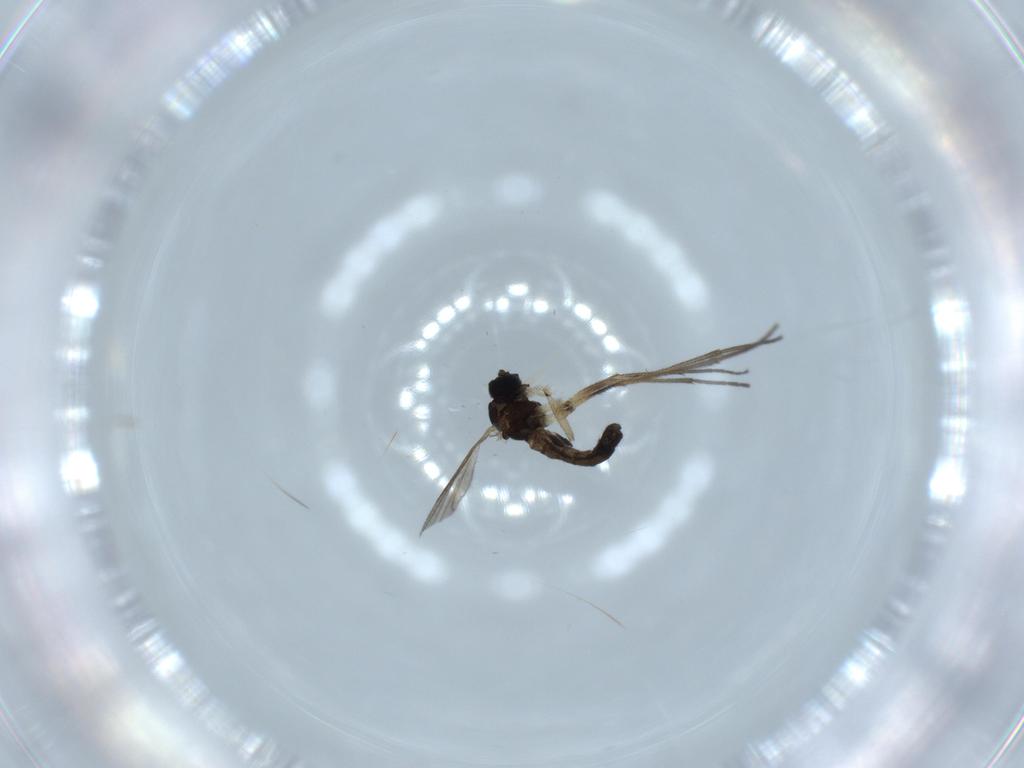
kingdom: Animalia
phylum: Arthropoda
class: Insecta
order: Diptera
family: Sciaridae
